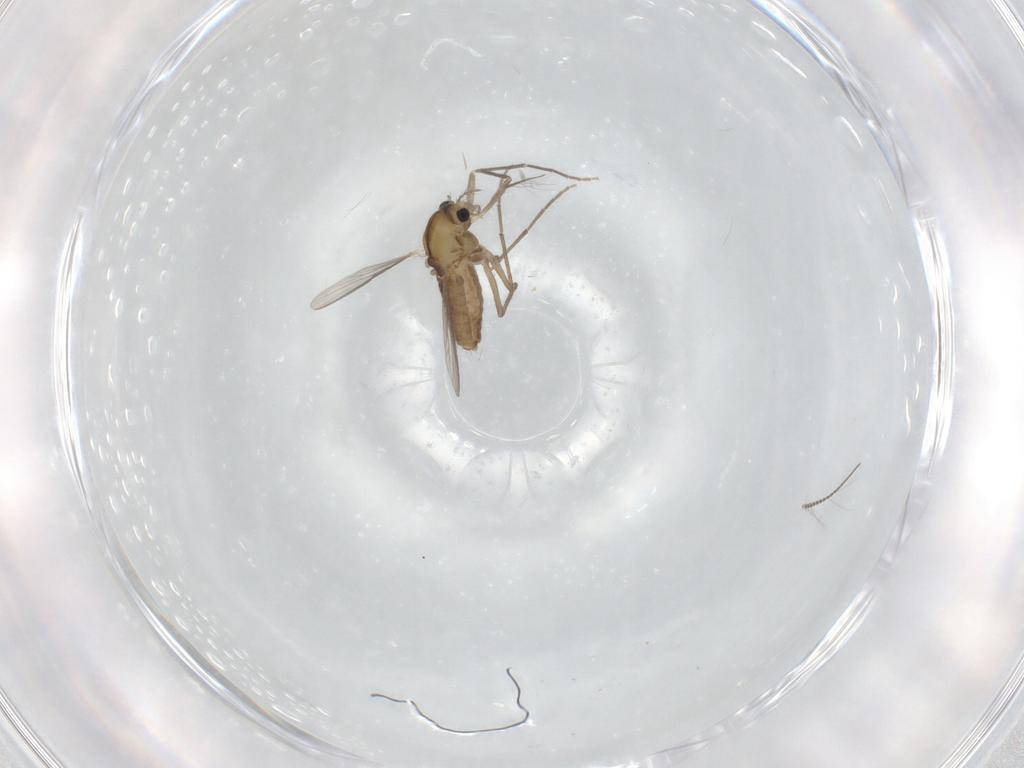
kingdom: Animalia
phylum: Arthropoda
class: Insecta
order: Diptera
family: Chironomidae
